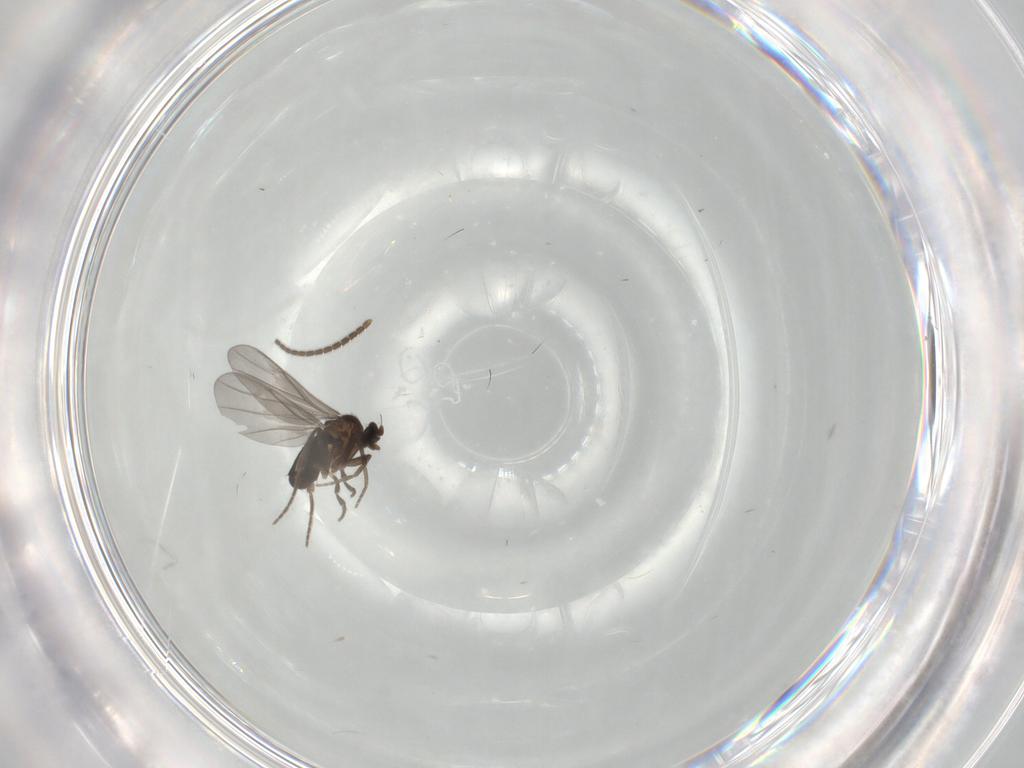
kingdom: Animalia
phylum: Arthropoda
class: Insecta
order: Diptera
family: Phoridae
